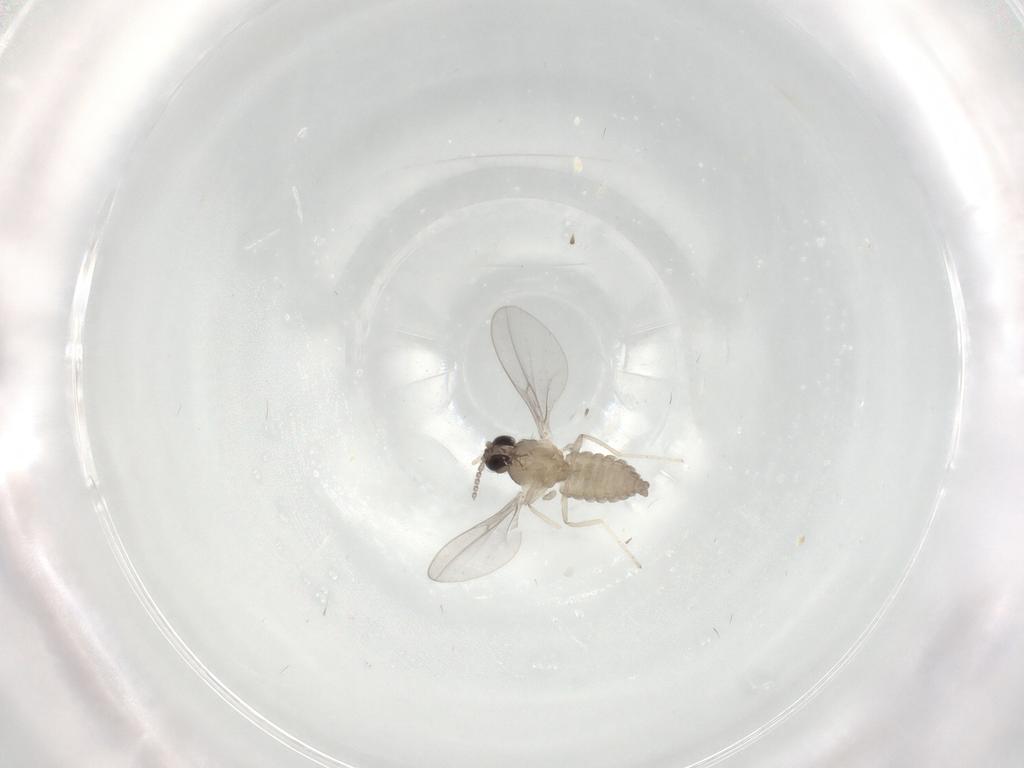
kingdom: Animalia
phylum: Arthropoda
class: Insecta
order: Diptera
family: Cecidomyiidae
